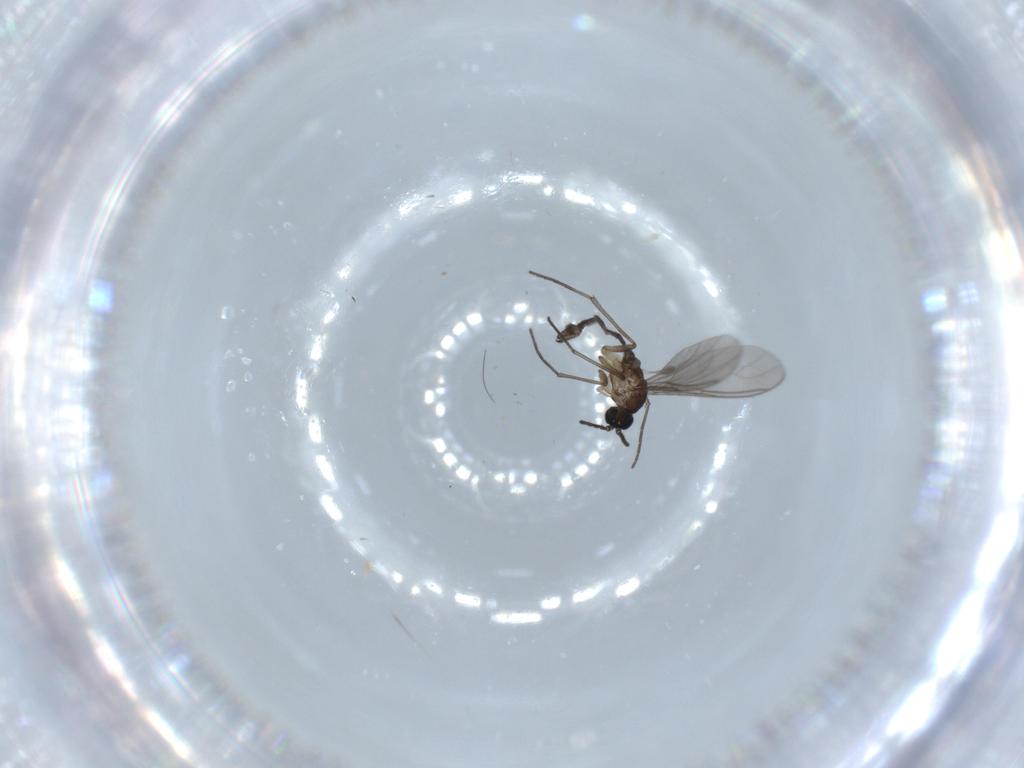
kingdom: Animalia
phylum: Arthropoda
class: Insecta
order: Diptera
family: Sciaridae
